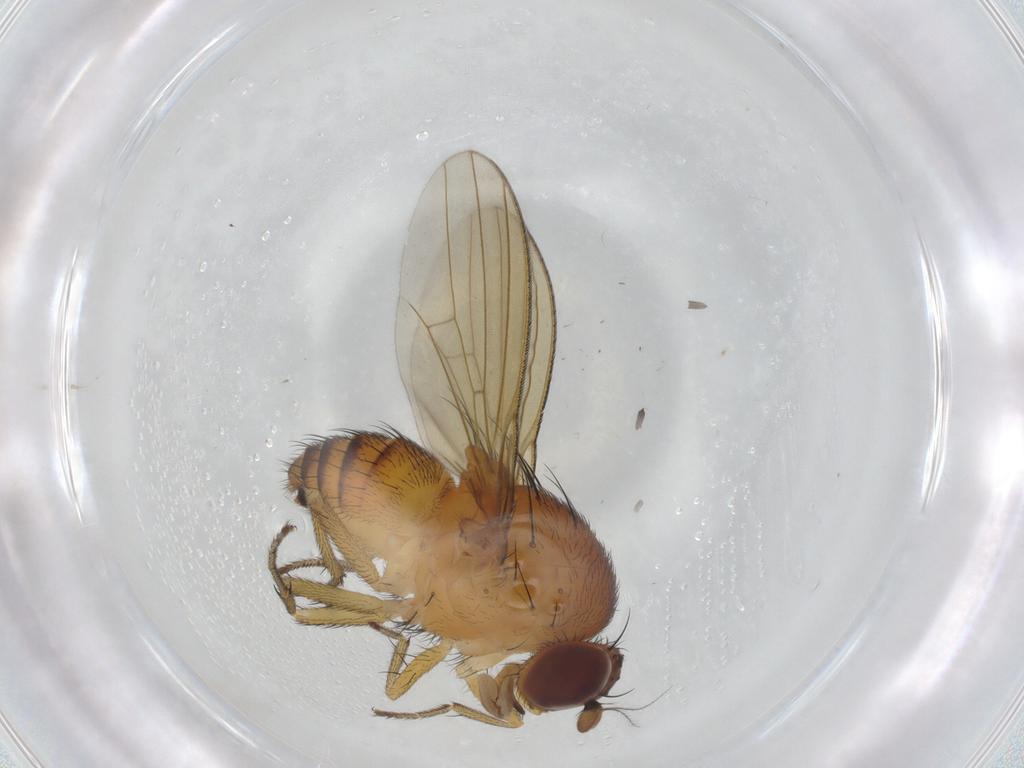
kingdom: Animalia
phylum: Arthropoda
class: Insecta
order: Diptera
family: Chironomidae
